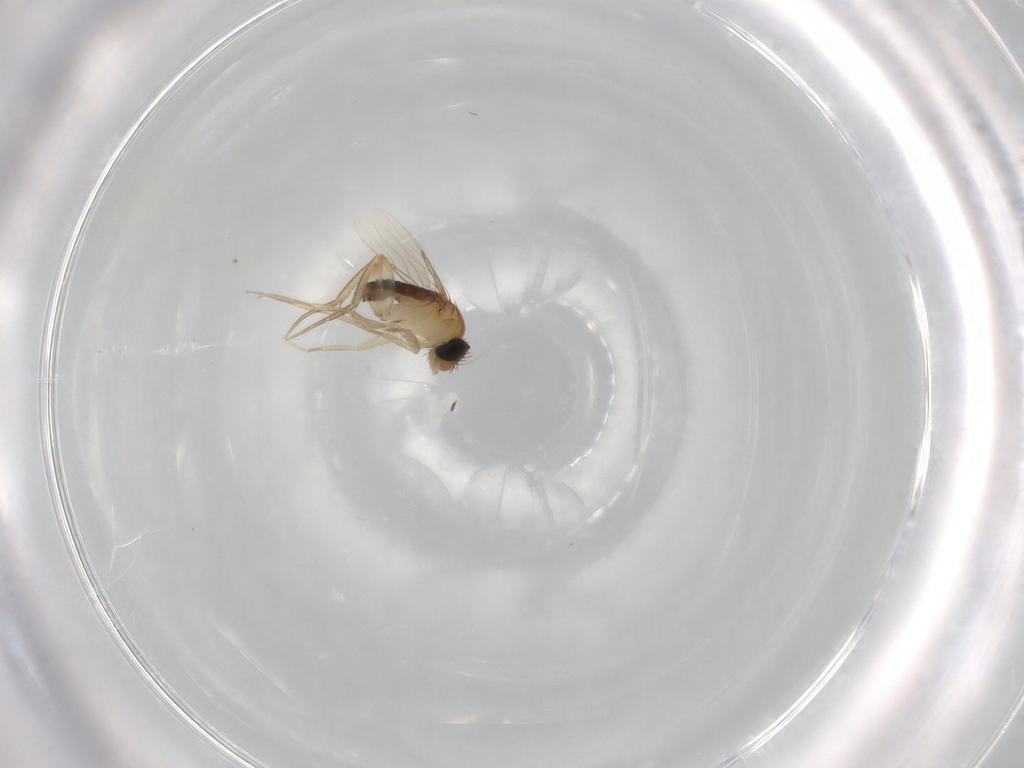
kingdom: Animalia
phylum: Arthropoda
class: Insecta
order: Diptera
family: Phoridae
